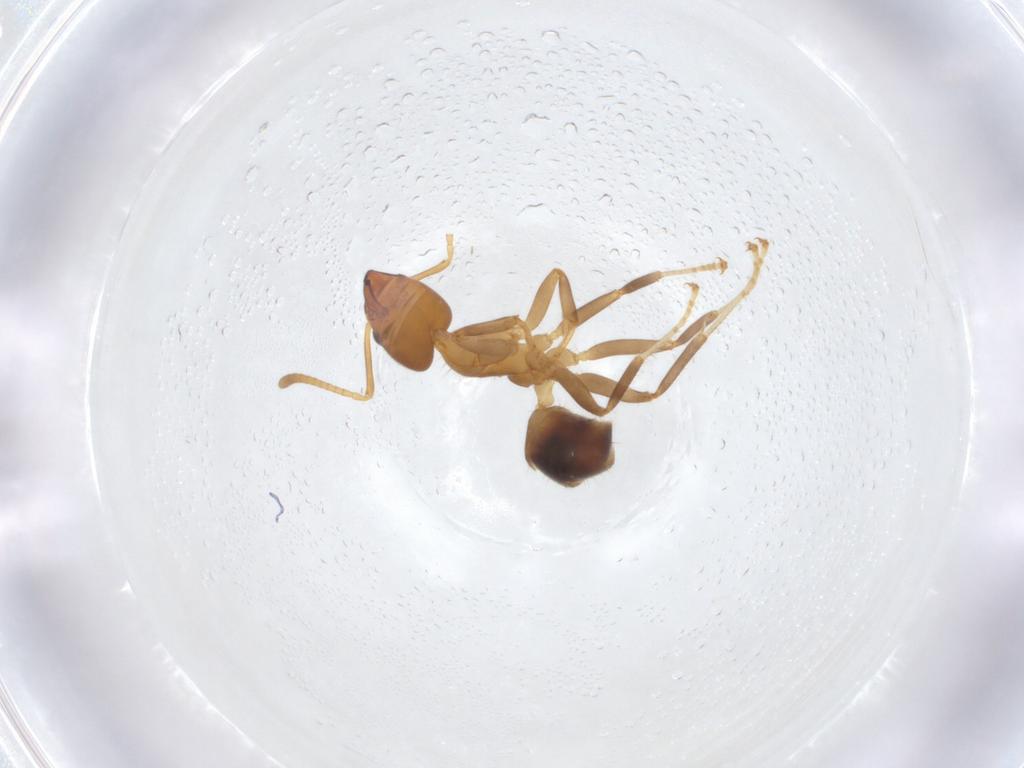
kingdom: Animalia
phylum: Arthropoda
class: Insecta
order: Hymenoptera
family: Formicidae
